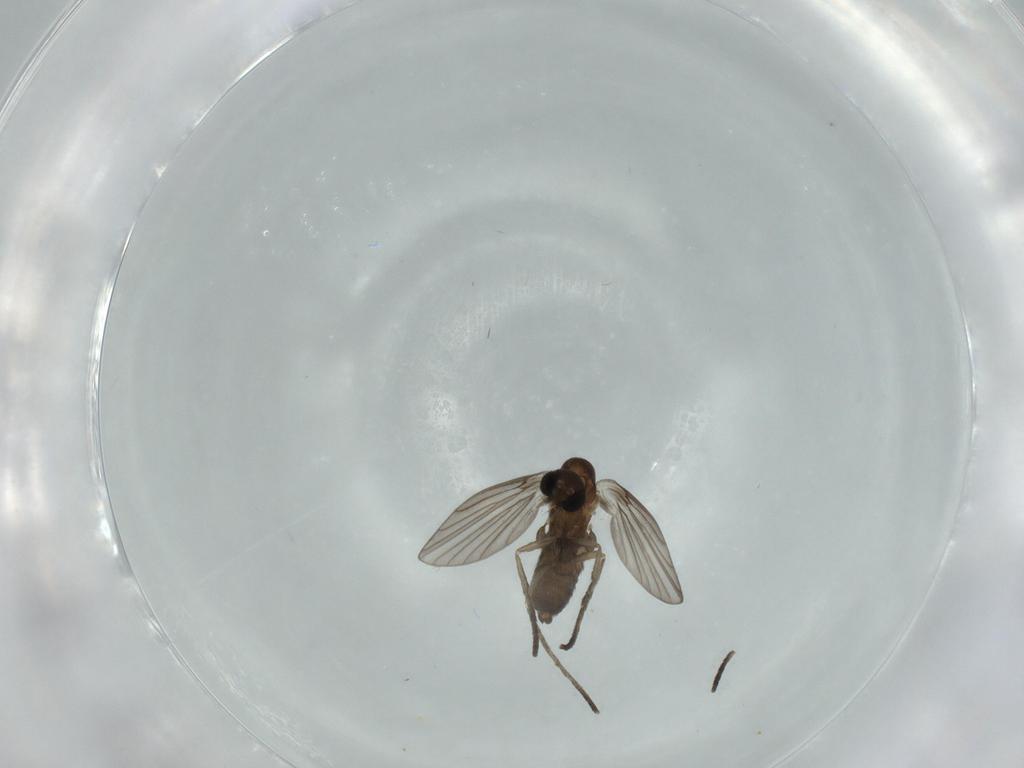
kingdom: Animalia
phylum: Arthropoda
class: Insecta
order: Diptera
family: Psychodidae
